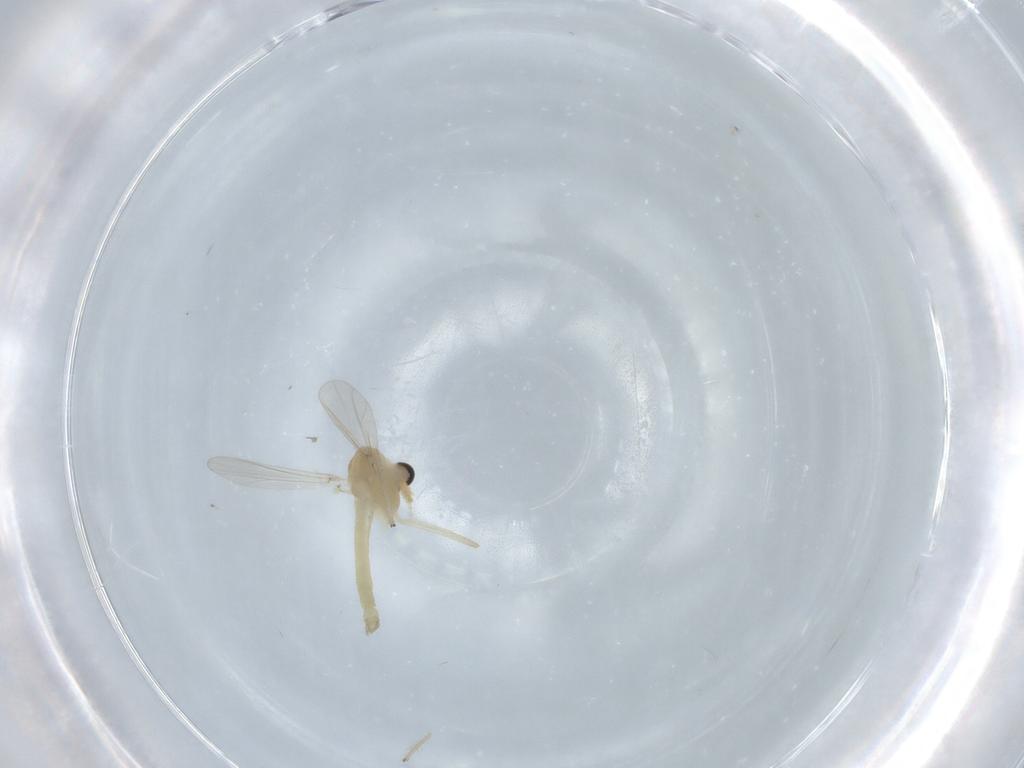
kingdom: Animalia
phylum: Arthropoda
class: Insecta
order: Diptera
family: Chironomidae
